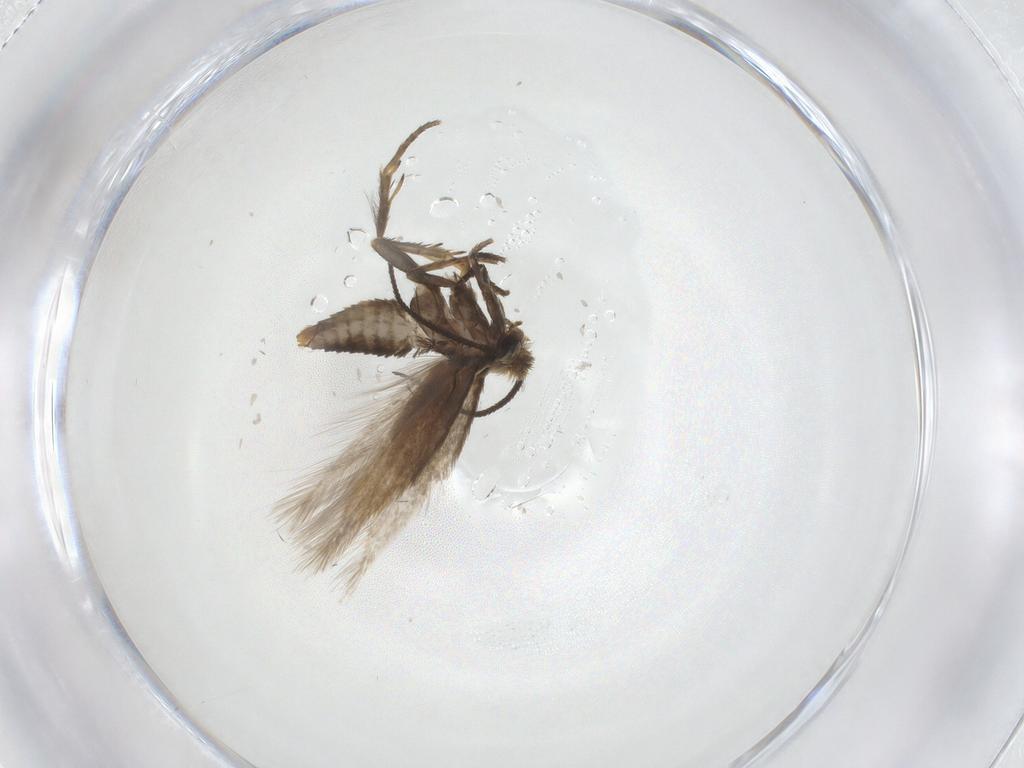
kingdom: Animalia
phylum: Arthropoda
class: Insecta
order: Lepidoptera
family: Nepticulidae
